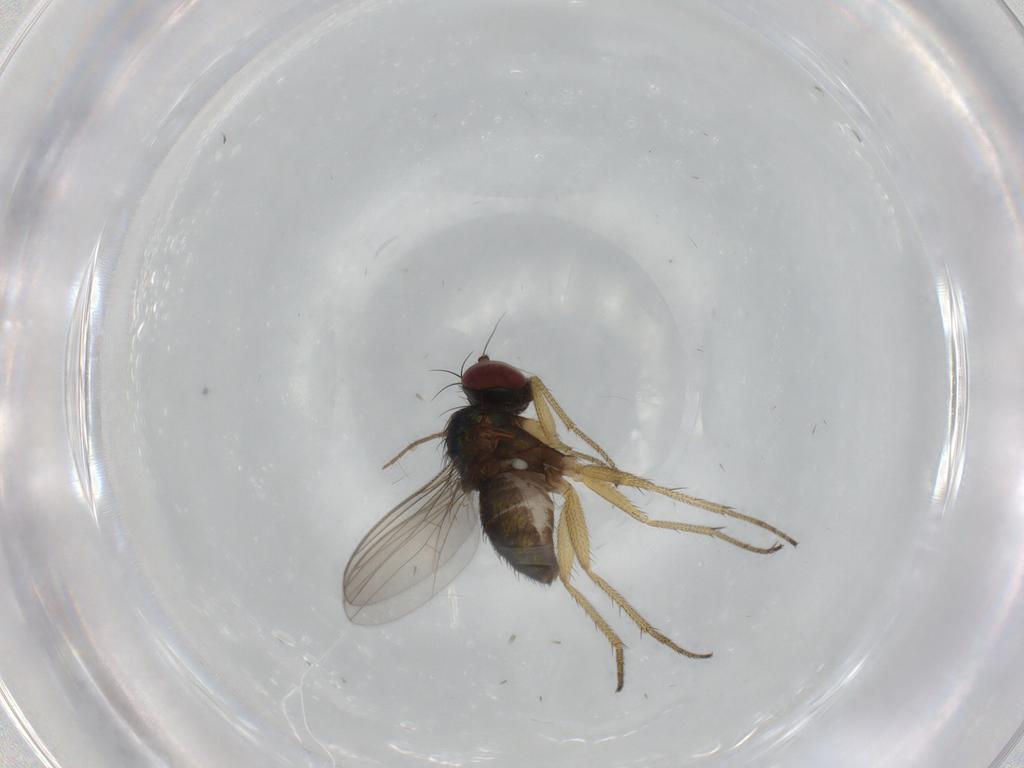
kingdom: Animalia
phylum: Arthropoda
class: Insecta
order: Diptera
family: Dolichopodidae
